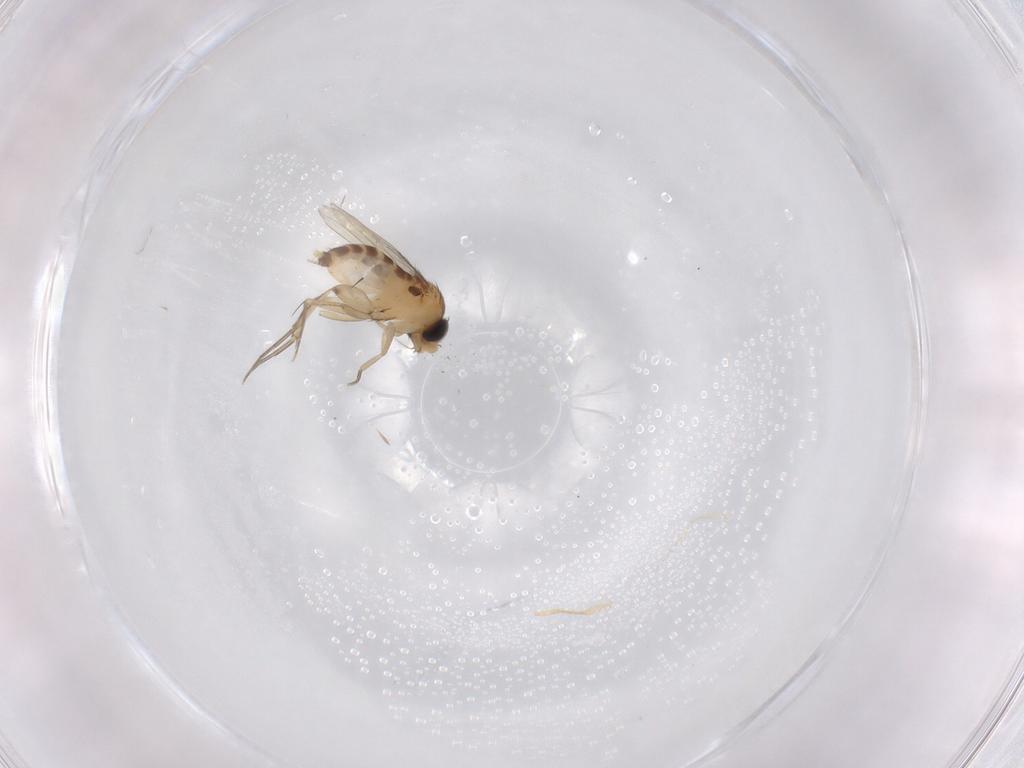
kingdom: Animalia
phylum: Arthropoda
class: Insecta
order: Diptera
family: Phoridae
